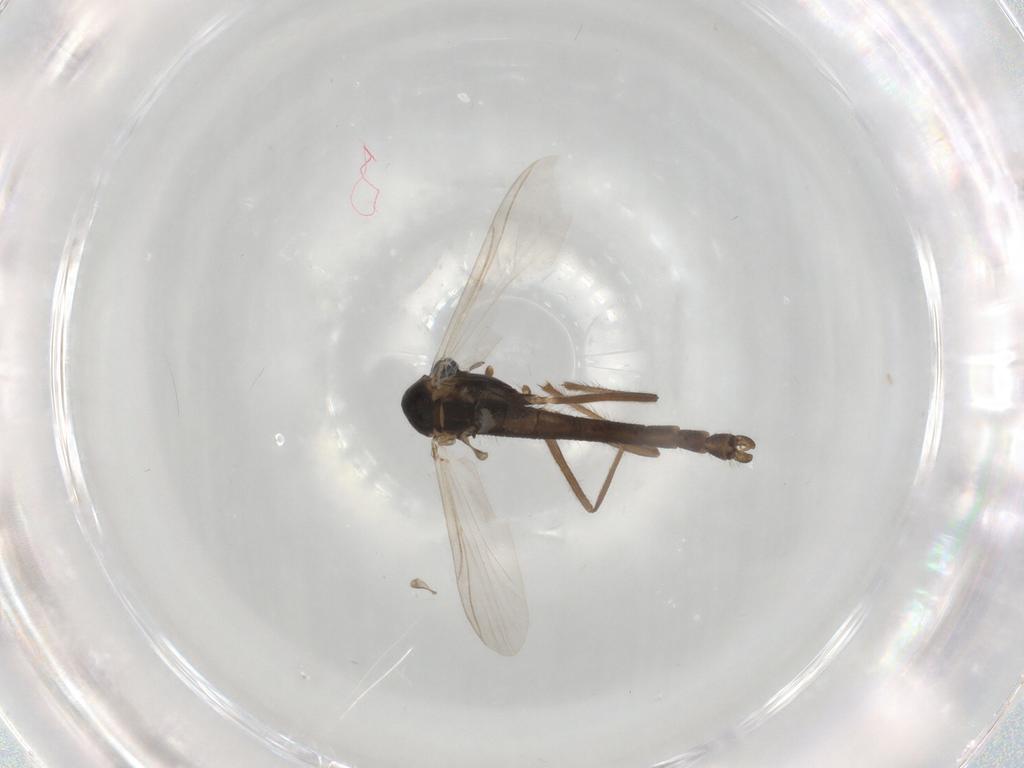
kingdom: Animalia
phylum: Arthropoda
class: Insecta
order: Diptera
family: Chironomidae
